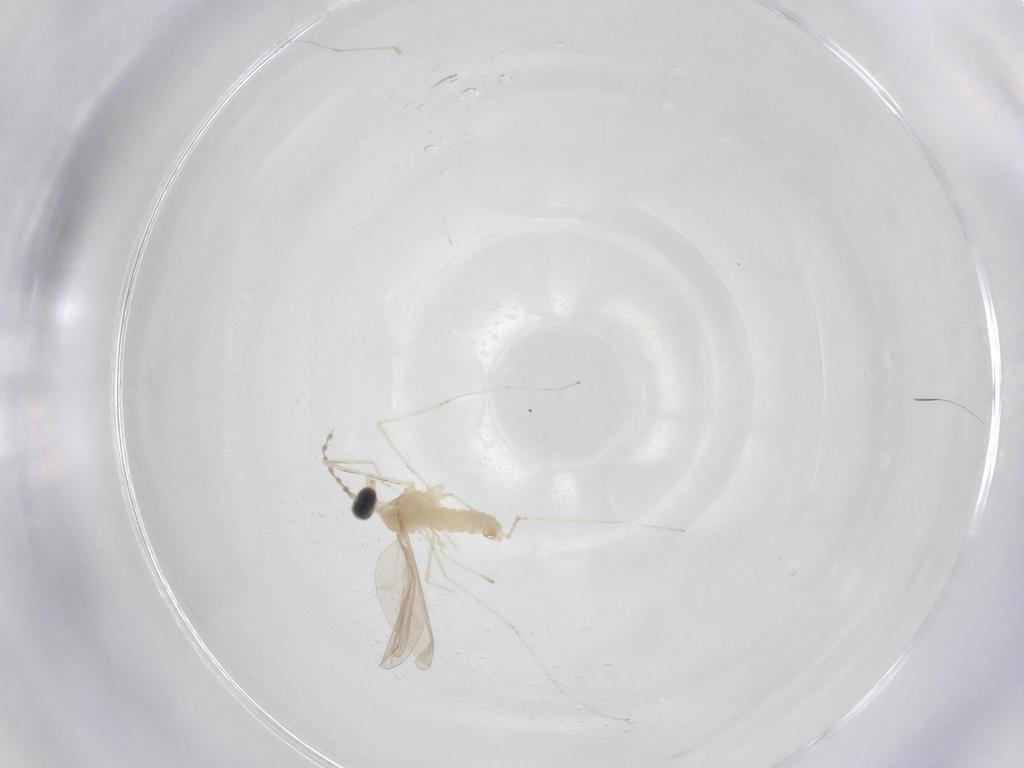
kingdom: Animalia
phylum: Arthropoda
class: Insecta
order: Diptera
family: Cecidomyiidae
